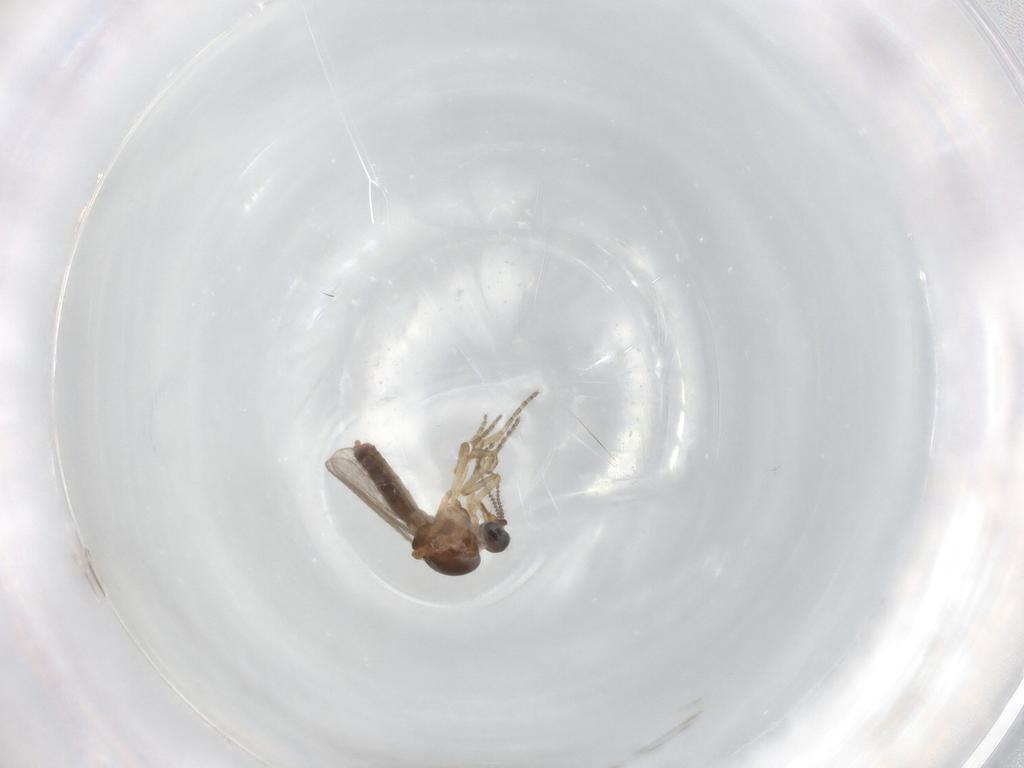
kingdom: Animalia
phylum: Arthropoda
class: Insecta
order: Diptera
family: Ceratopogonidae
